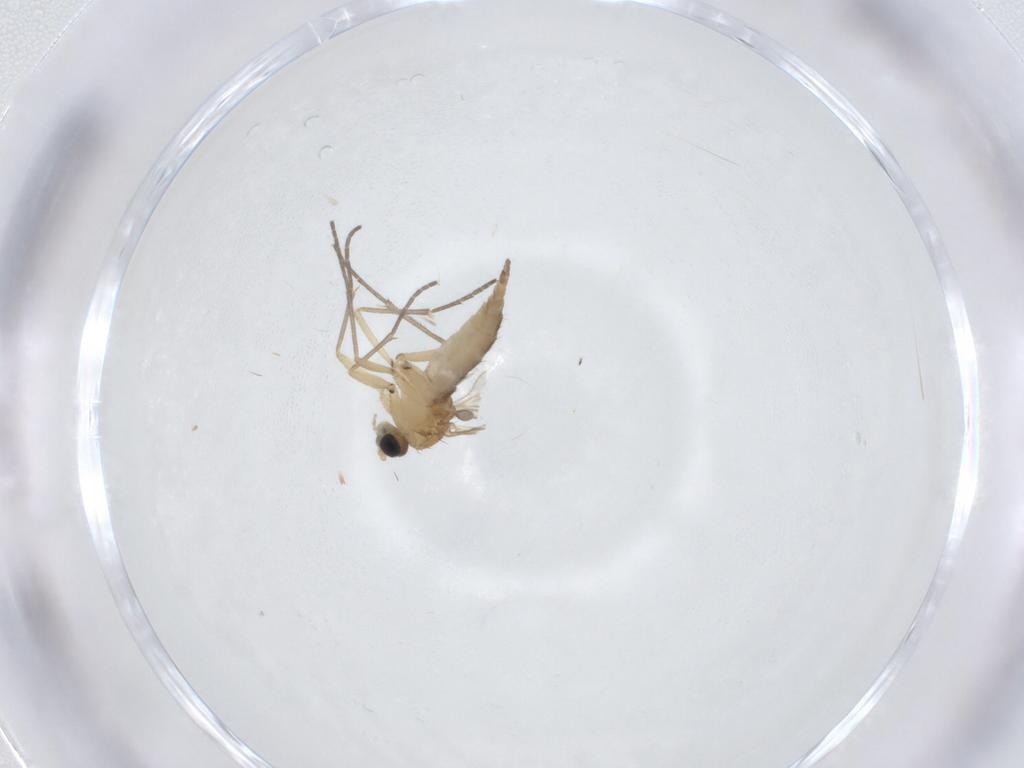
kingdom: Animalia
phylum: Arthropoda
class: Insecta
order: Diptera
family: Cecidomyiidae
